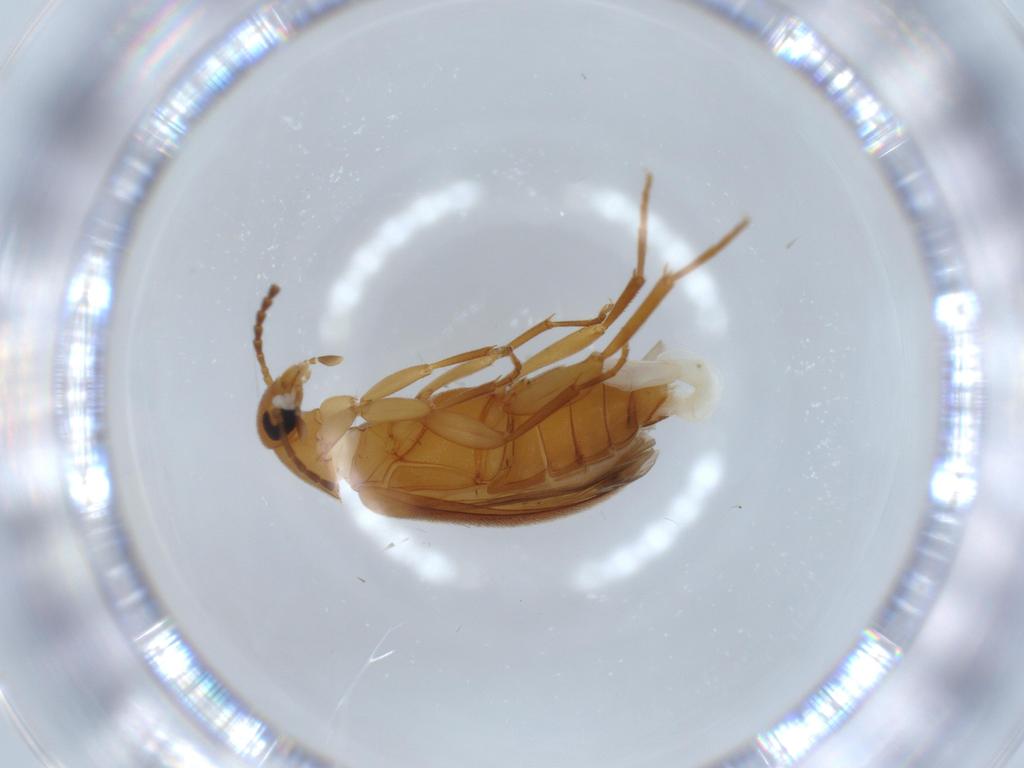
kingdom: Animalia
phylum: Arthropoda
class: Insecta
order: Coleoptera
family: Scraptiidae
